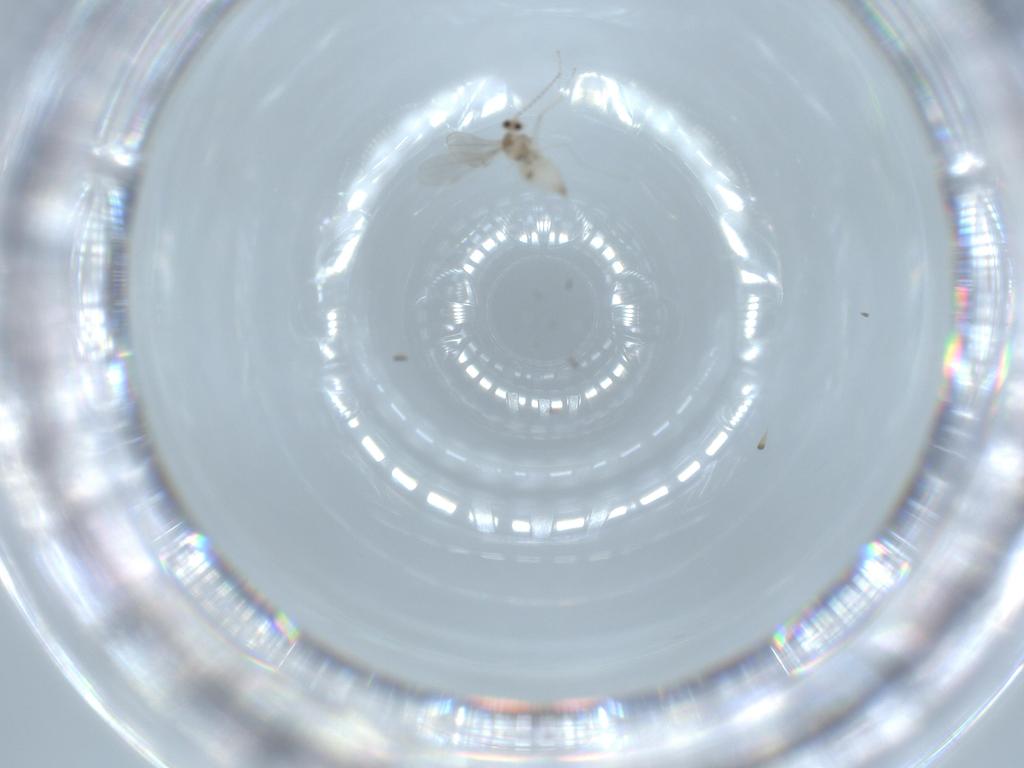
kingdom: Animalia
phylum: Arthropoda
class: Insecta
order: Diptera
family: Cecidomyiidae
